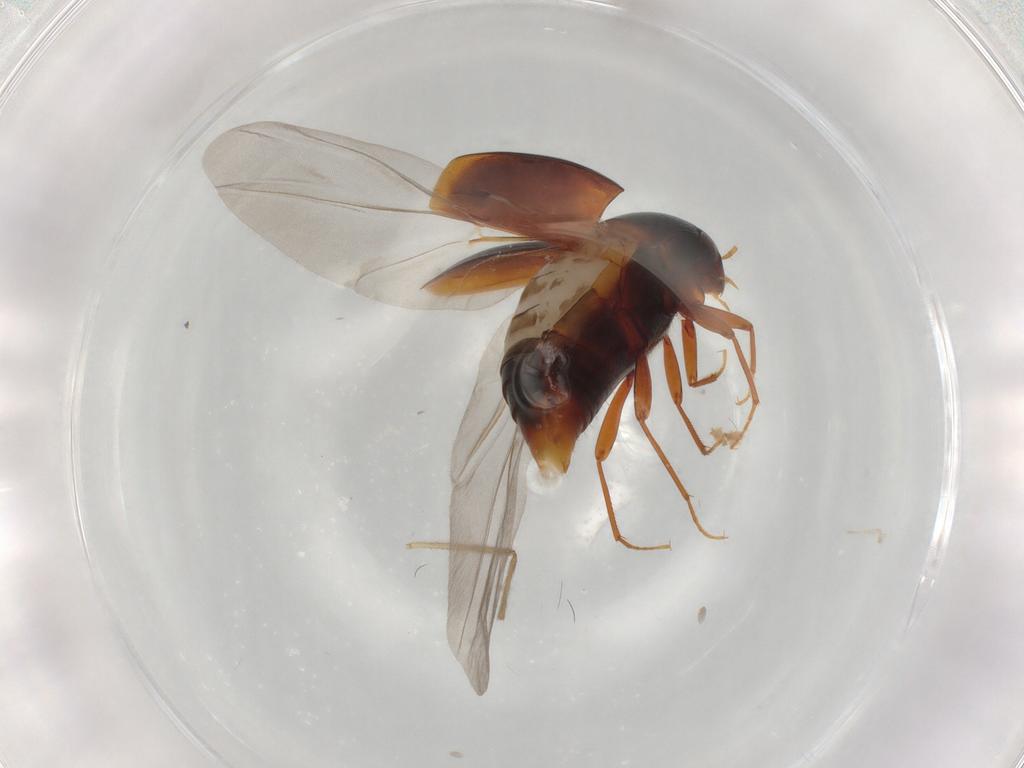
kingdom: Animalia
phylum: Arthropoda
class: Insecta
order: Coleoptera
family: Staphylinidae
